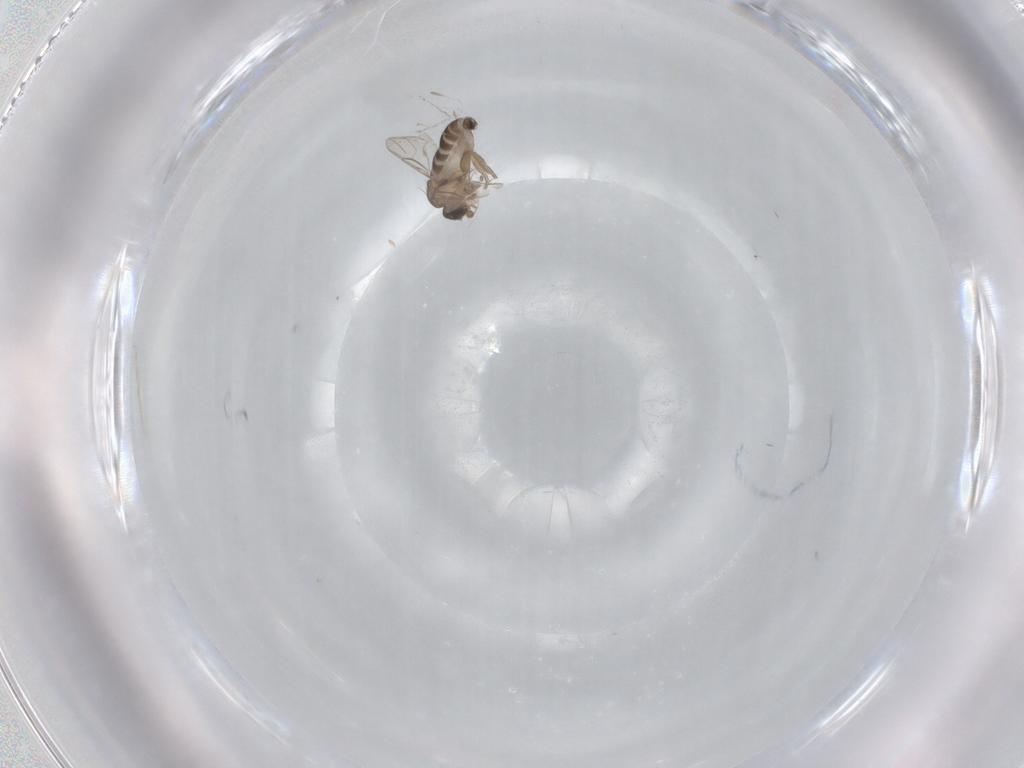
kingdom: Animalia
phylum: Arthropoda
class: Insecta
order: Diptera
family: Phoridae
